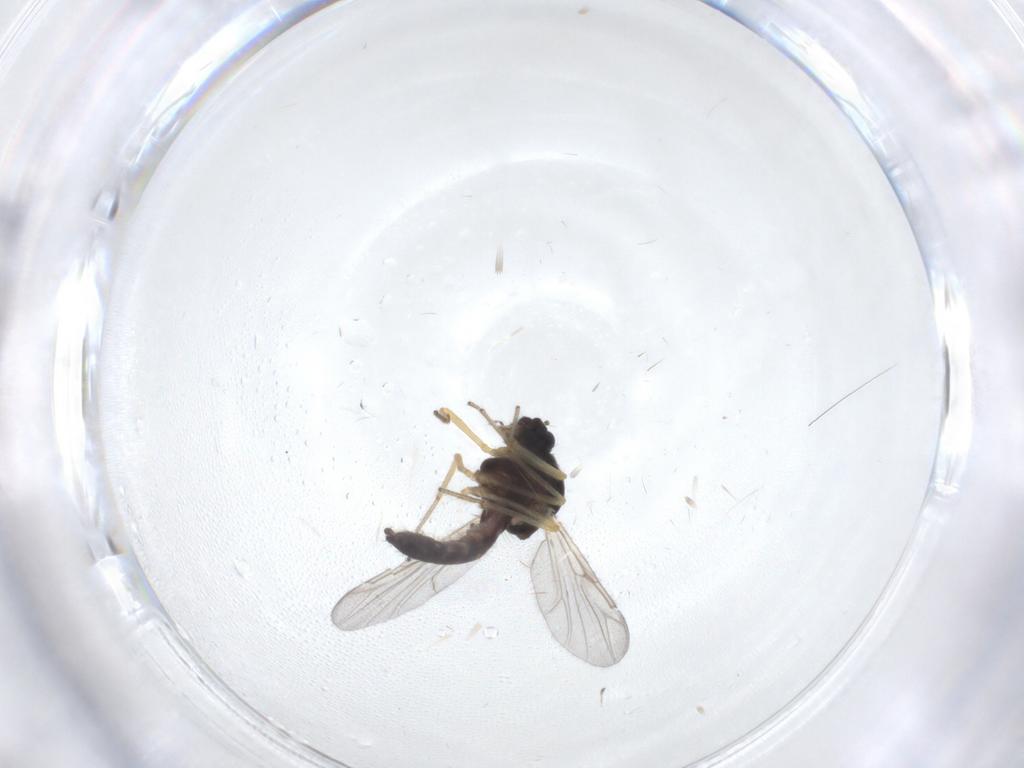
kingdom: Animalia
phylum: Arthropoda
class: Insecta
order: Diptera
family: Ceratopogonidae
